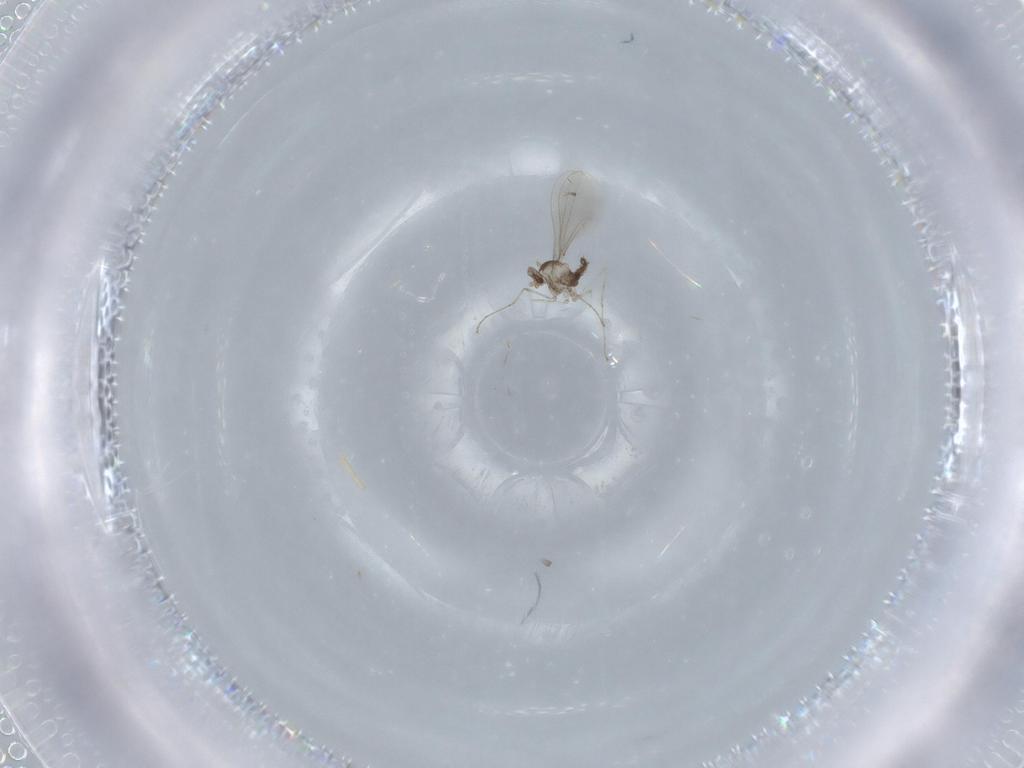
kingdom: Animalia
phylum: Arthropoda
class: Insecta
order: Diptera
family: Cecidomyiidae
